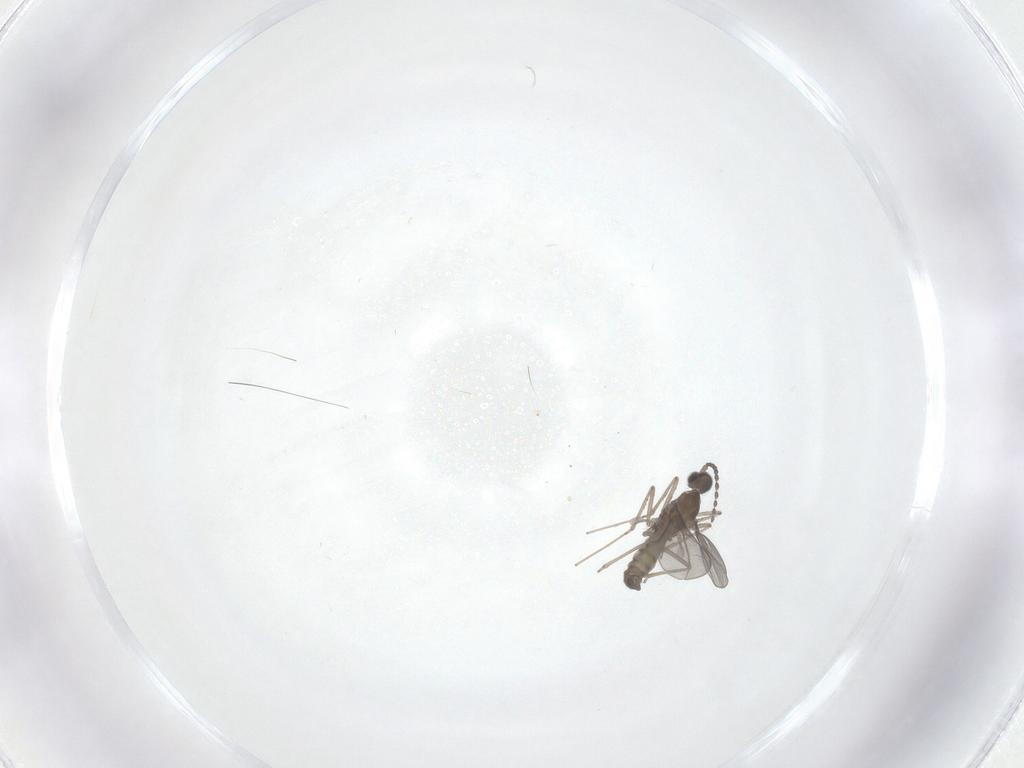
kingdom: Animalia
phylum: Arthropoda
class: Insecta
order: Diptera
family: Cecidomyiidae
